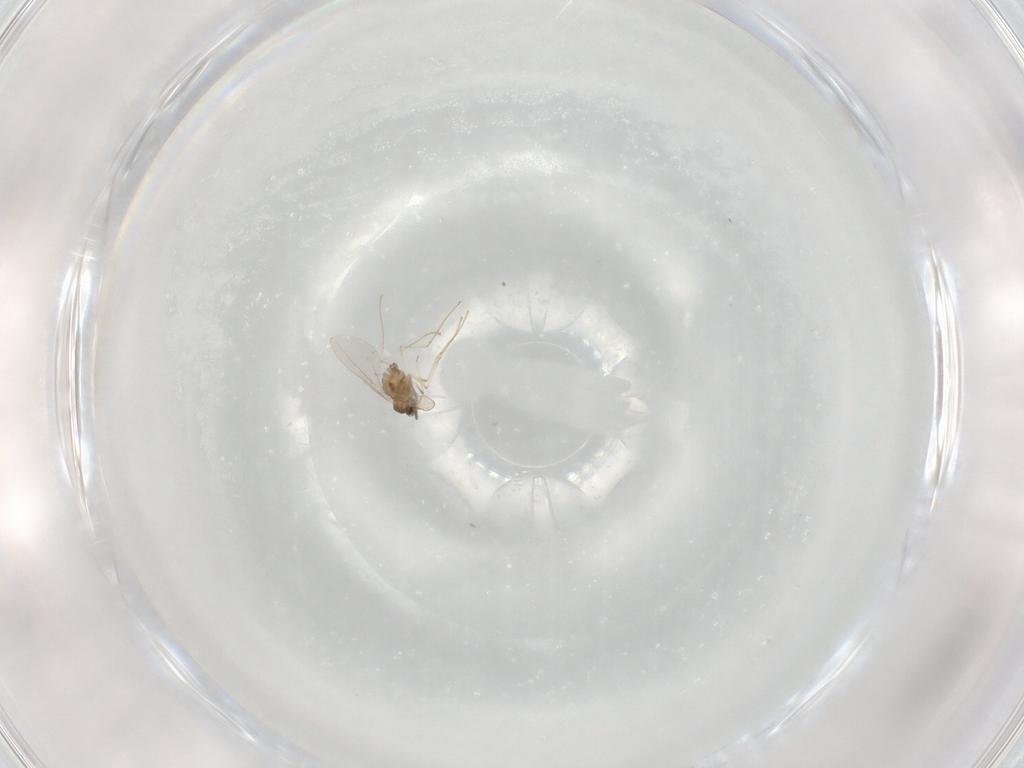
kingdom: Animalia
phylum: Arthropoda
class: Insecta
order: Diptera
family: Cecidomyiidae
